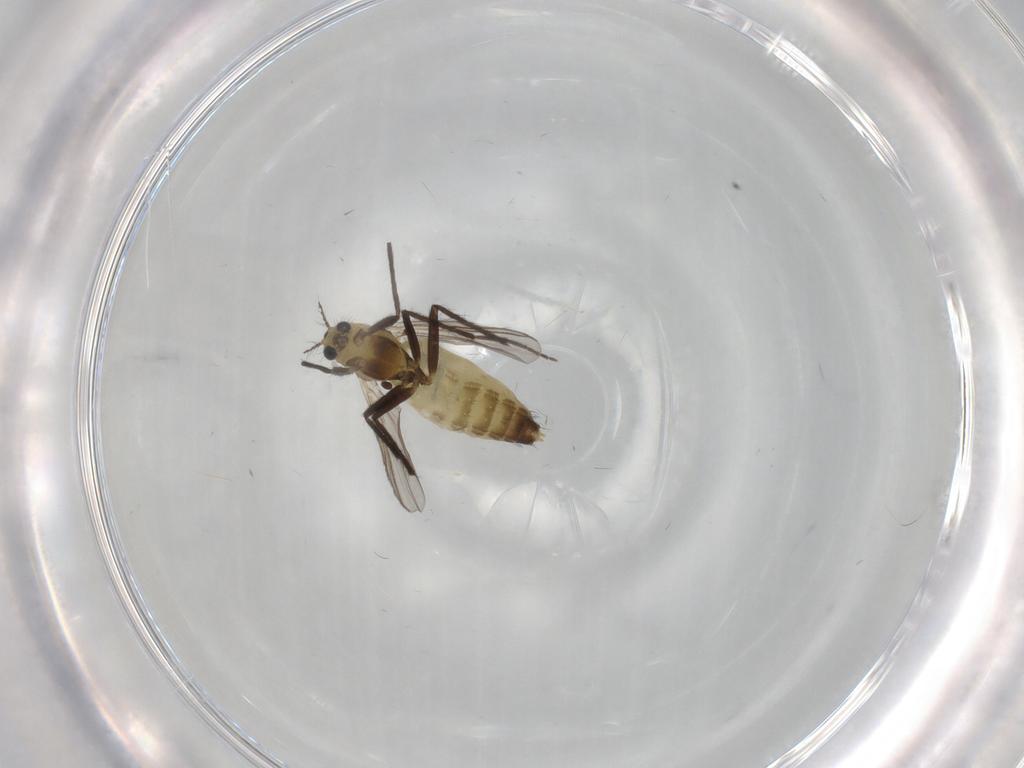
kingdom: Animalia
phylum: Arthropoda
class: Insecta
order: Diptera
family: Chironomidae
